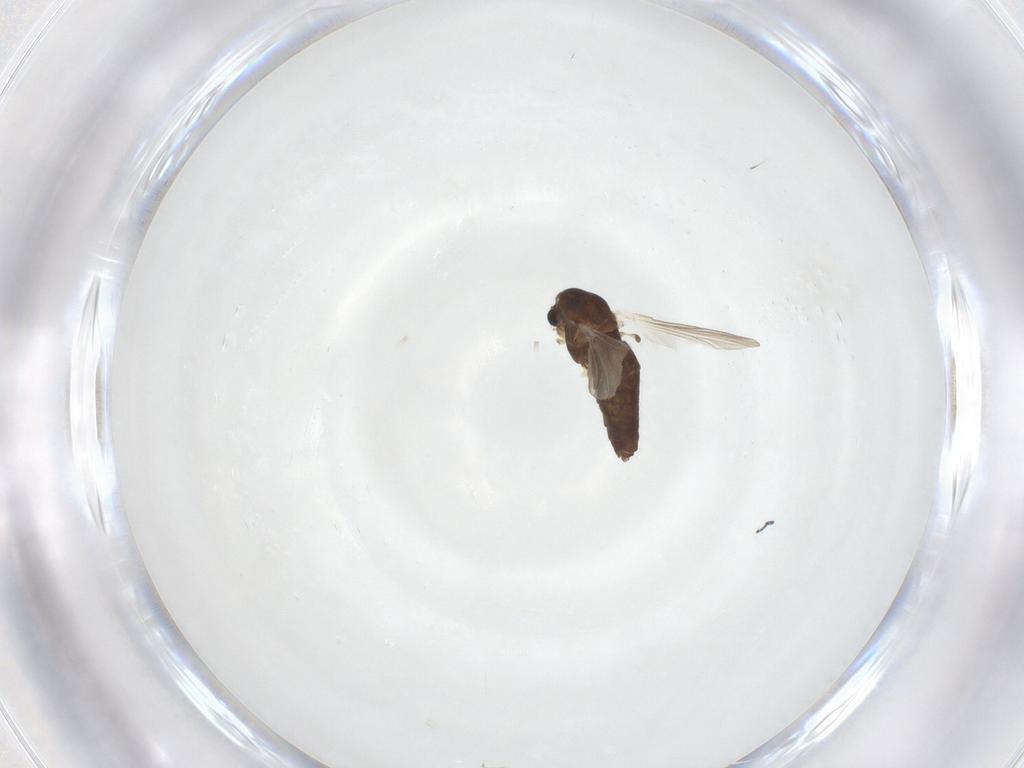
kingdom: Animalia
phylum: Arthropoda
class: Insecta
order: Diptera
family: Chironomidae
